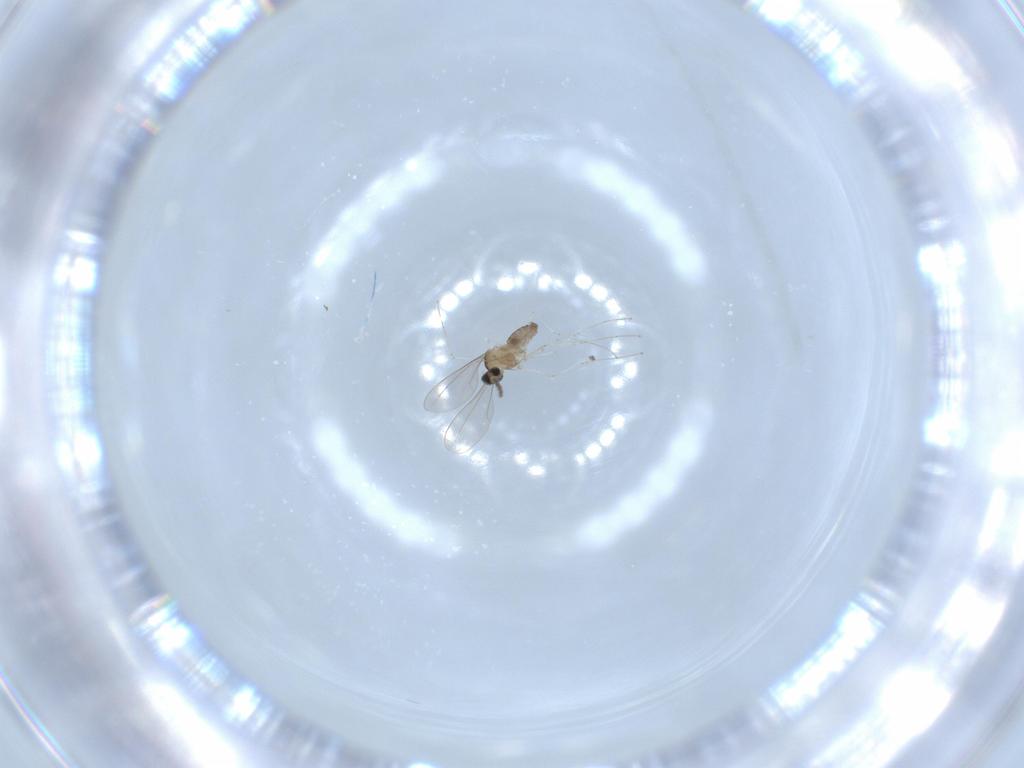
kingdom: Animalia
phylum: Arthropoda
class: Insecta
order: Diptera
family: Cecidomyiidae
